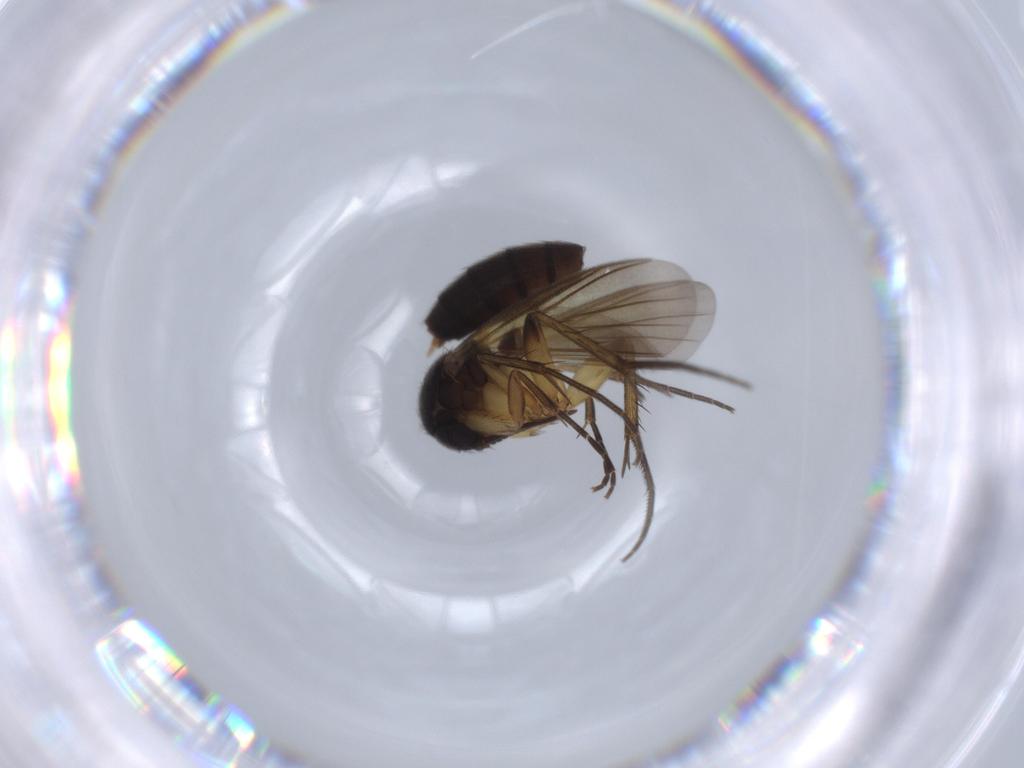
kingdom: Animalia
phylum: Arthropoda
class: Insecta
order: Diptera
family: Mycetophilidae
